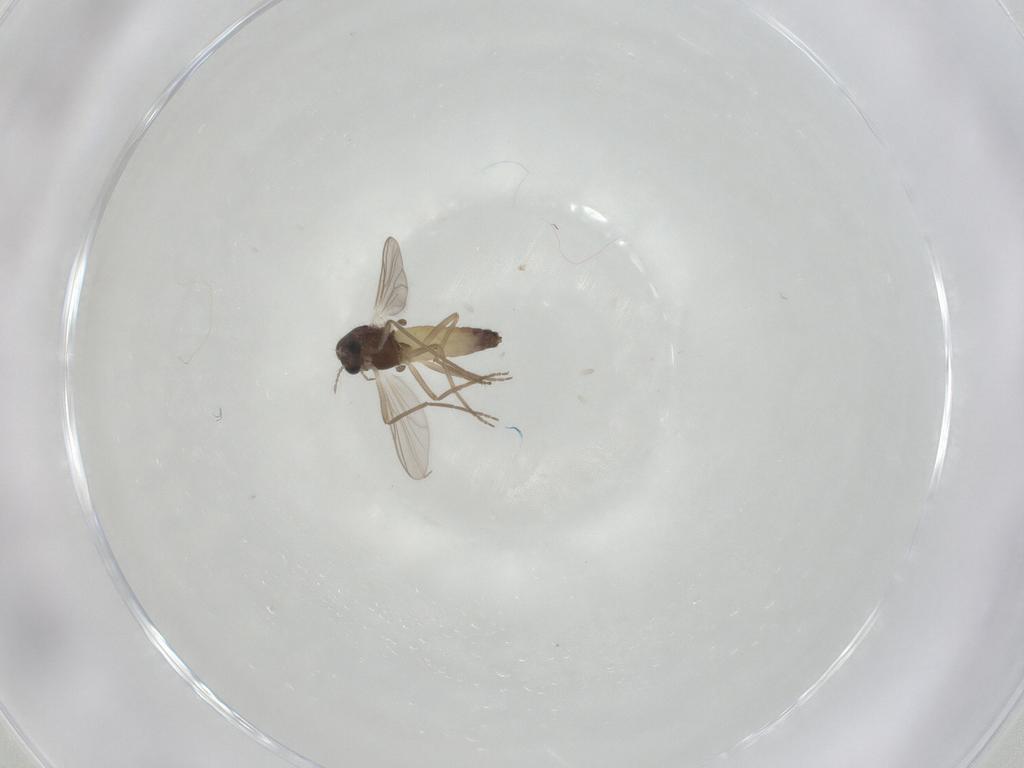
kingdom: Animalia
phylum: Arthropoda
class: Insecta
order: Diptera
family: Chironomidae
